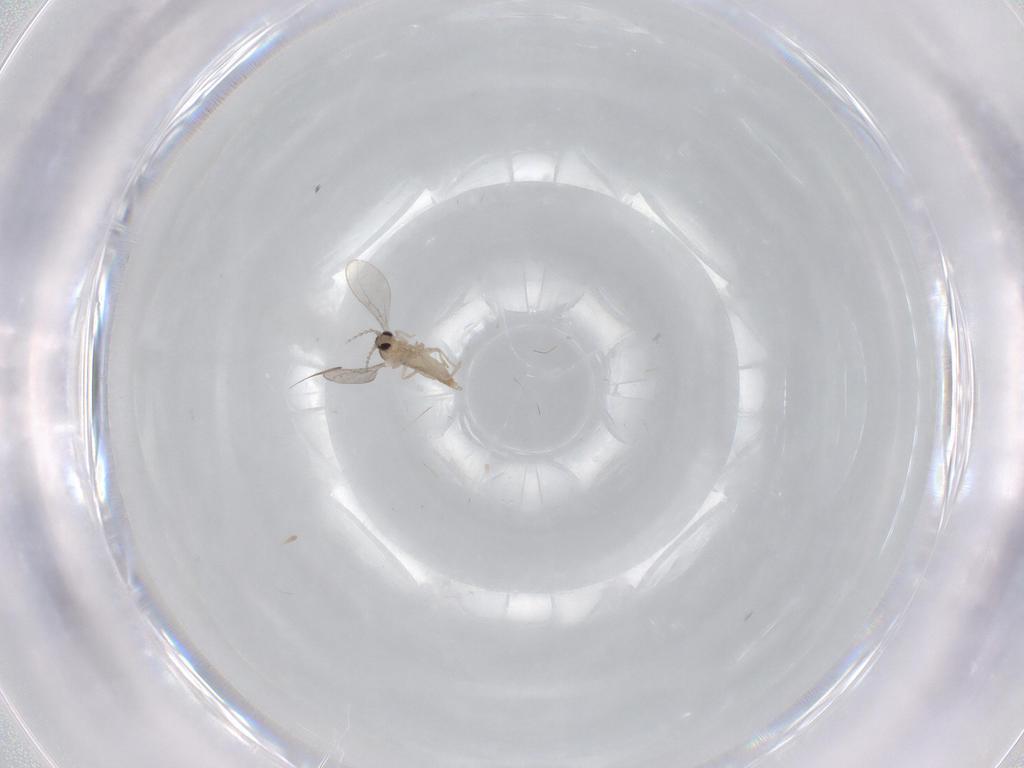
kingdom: Animalia
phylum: Arthropoda
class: Insecta
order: Diptera
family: Cecidomyiidae
